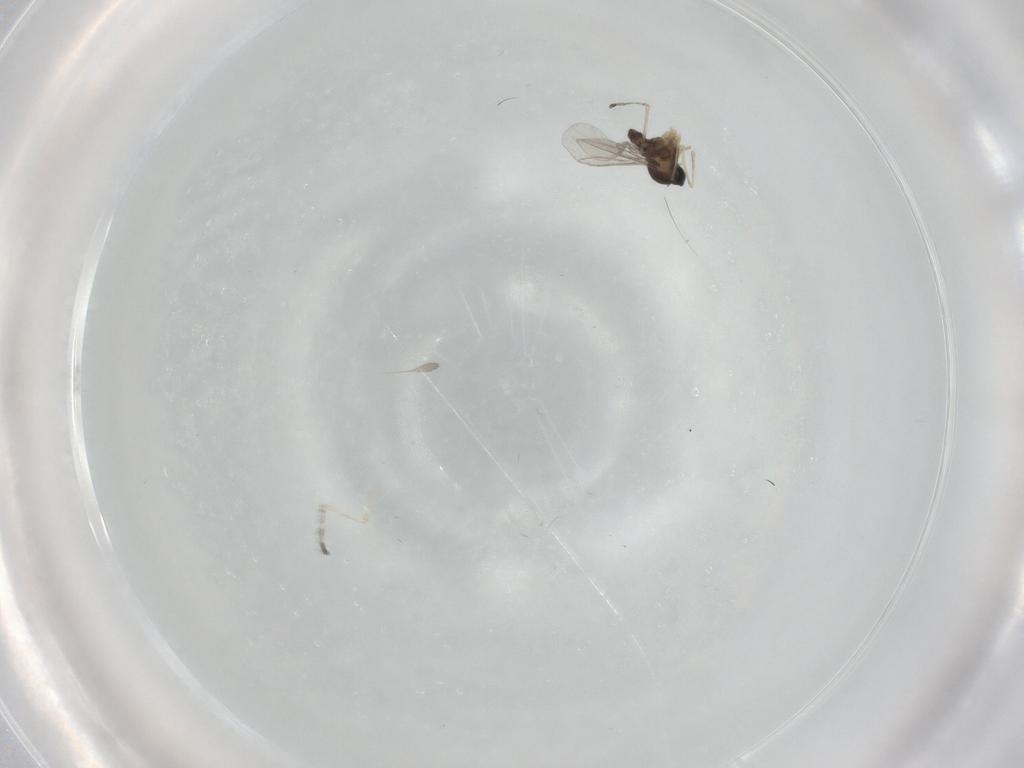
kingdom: Animalia
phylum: Arthropoda
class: Insecta
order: Diptera
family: Cecidomyiidae
